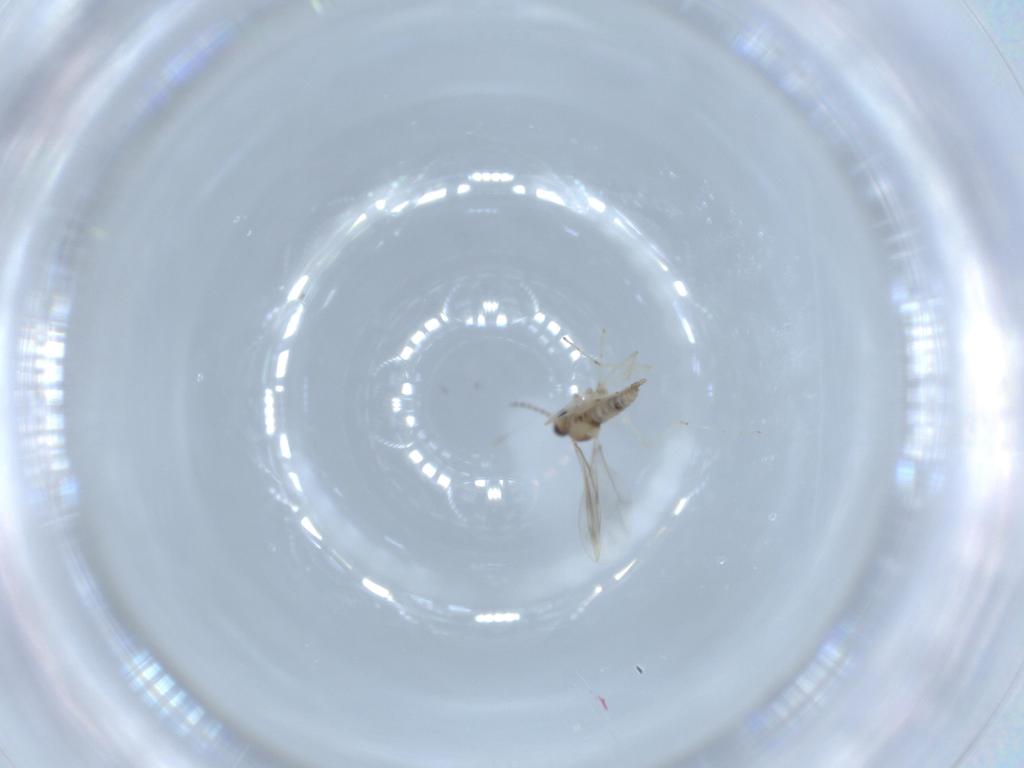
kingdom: Animalia
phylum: Arthropoda
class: Insecta
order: Diptera
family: Cecidomyiidae
